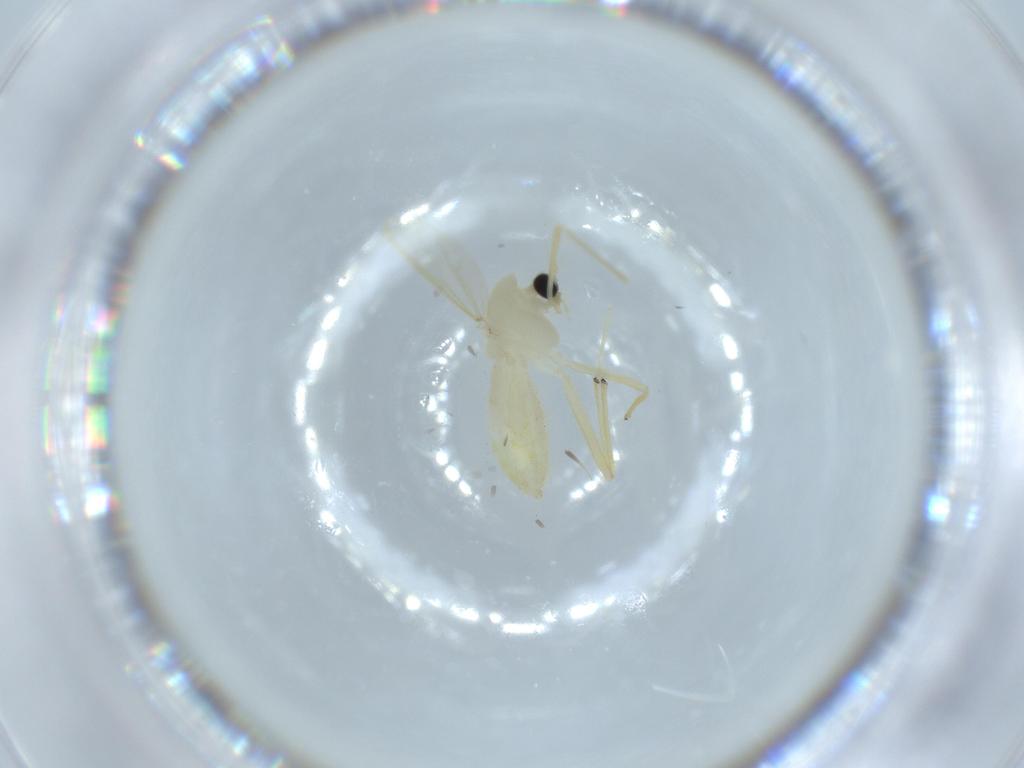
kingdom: Animalia
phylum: Arthropoda
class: Insecta
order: Diptera
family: Chironomidae
